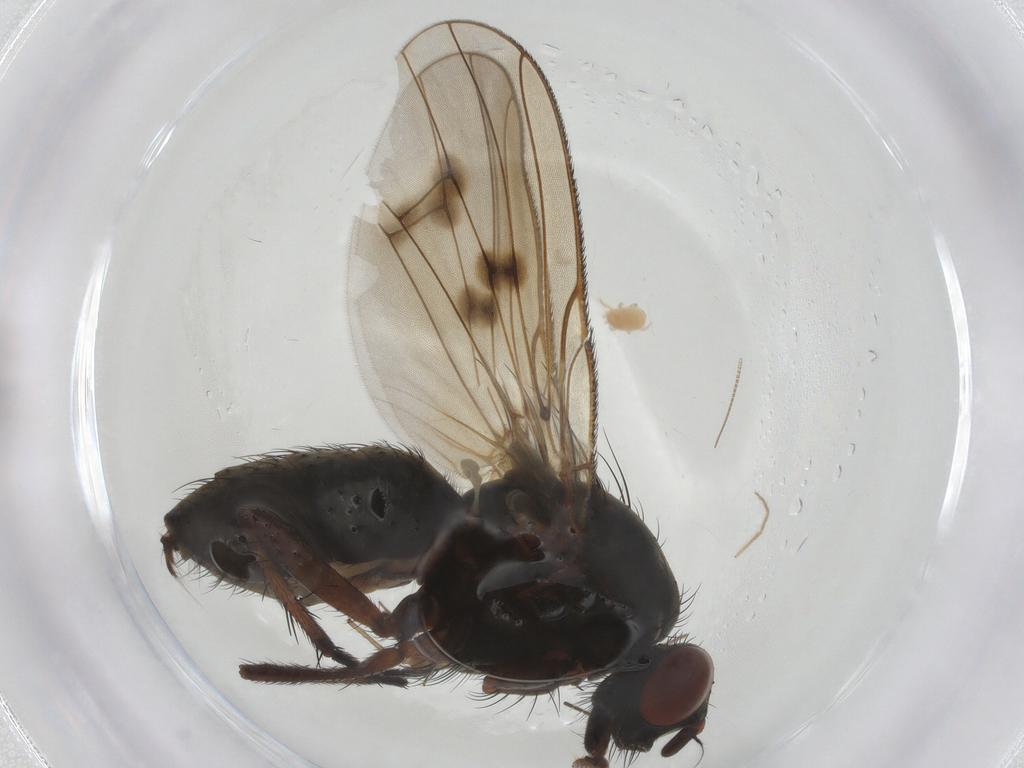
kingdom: Animalia
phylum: Arthropoda
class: Insecta
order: Diptera
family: Anthomyiidae
